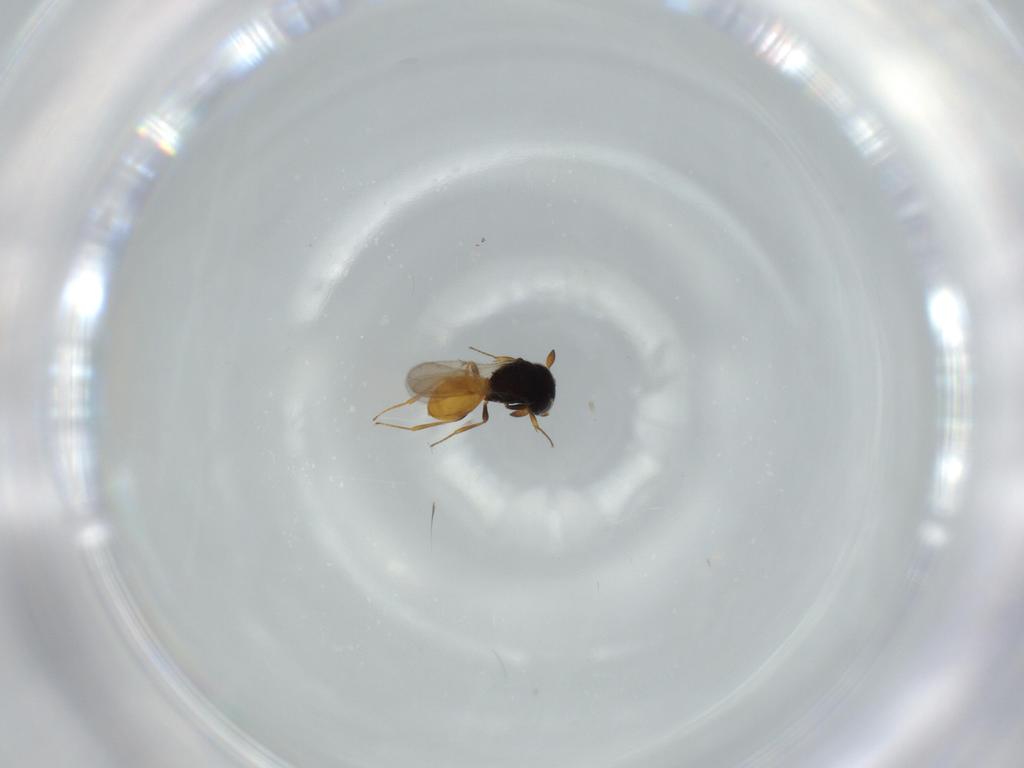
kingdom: Animalia
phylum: Arthropoda
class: Insecta
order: Hymenoptera
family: Scelionidae
